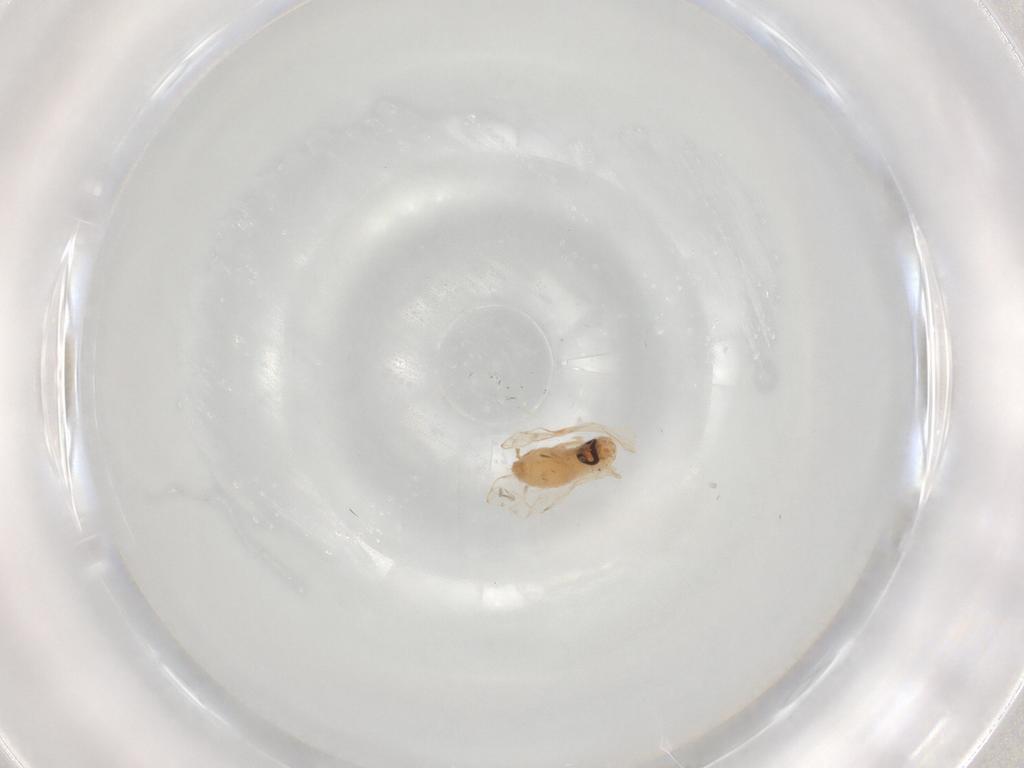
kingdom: Animalia
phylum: Arthropoda
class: Insecta
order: Diptera
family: Psychodidae
